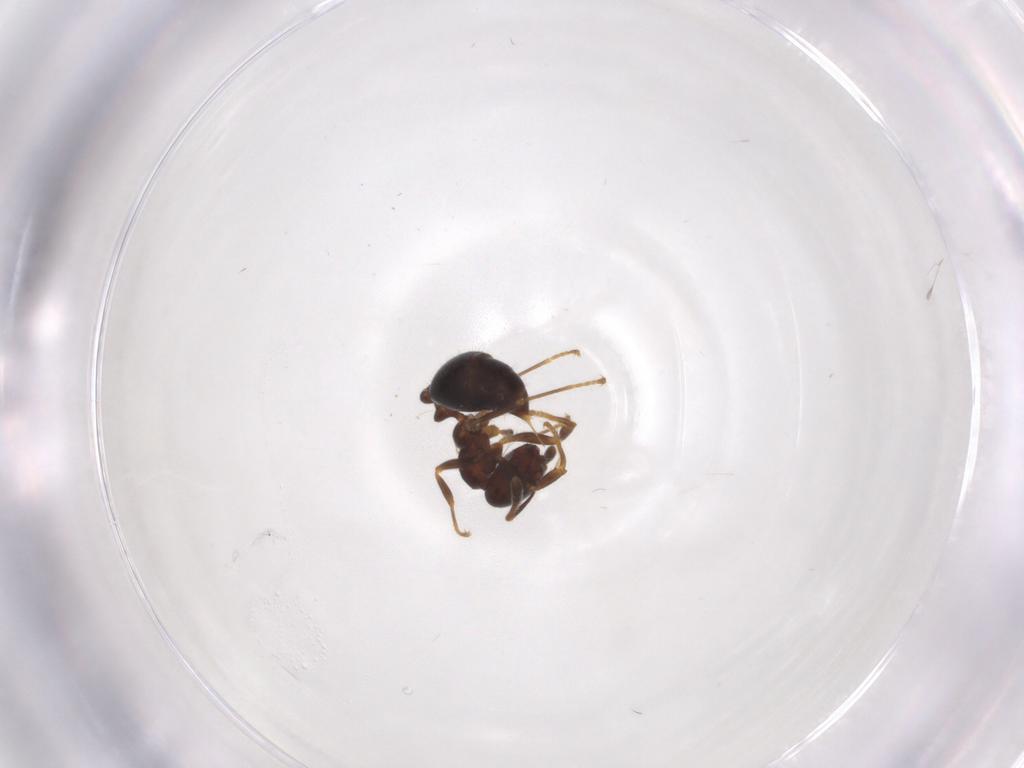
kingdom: Animalia
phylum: Arthropoda
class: Insecta
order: Hymenoptera
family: Formicidae
